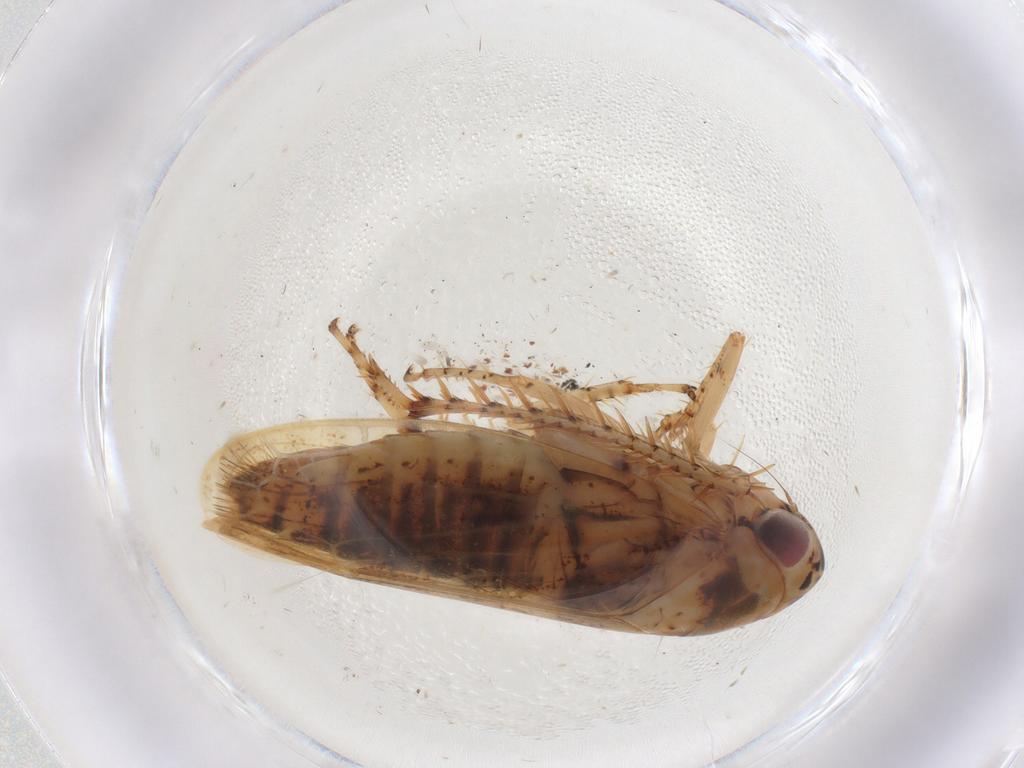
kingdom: Animalia
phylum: Arthropoda
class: Insecta
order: Hemiptera
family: Cicadellidae
